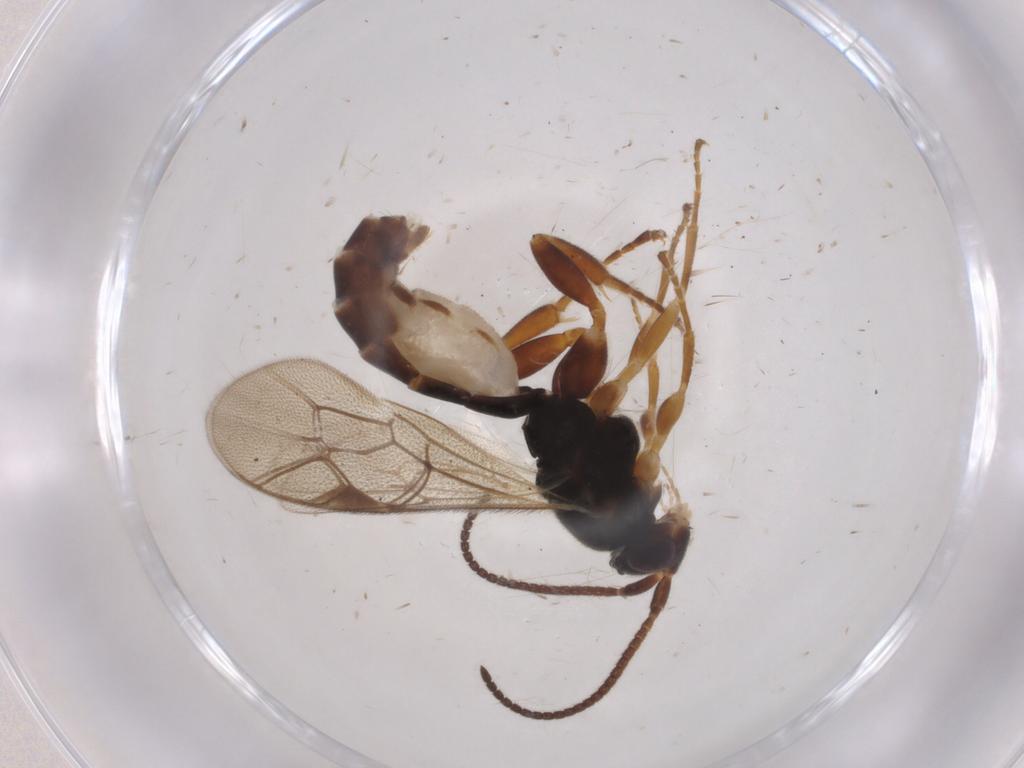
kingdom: Animalia
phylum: Arthropoda
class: Insecta
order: Hymenoptera
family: Ichneumonidae
